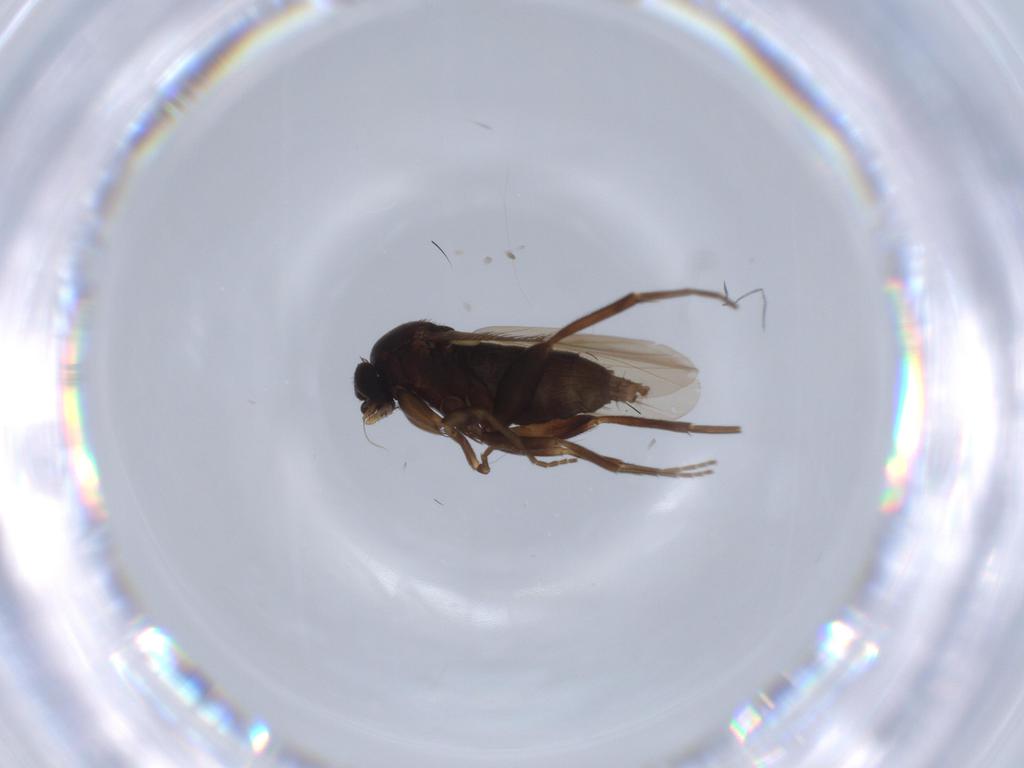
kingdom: Animalia
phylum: Arthropoda
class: Insecta
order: Diptera
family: Phoridae
